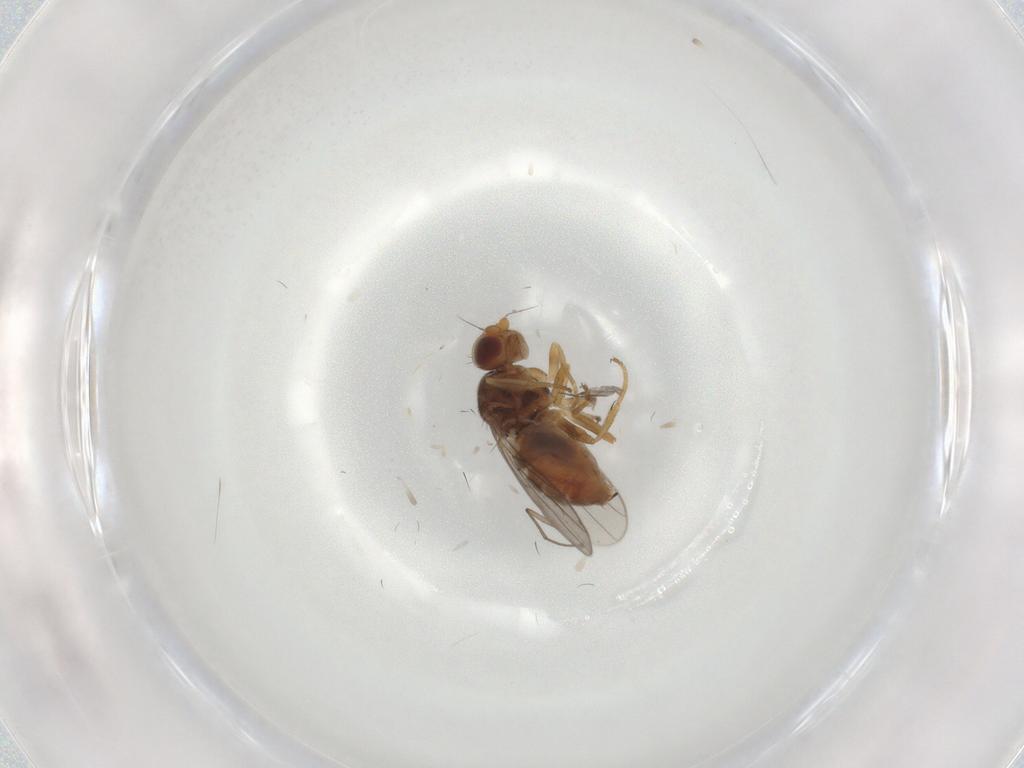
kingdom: Animalia
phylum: Arthropoda
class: Insecta
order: Diptera
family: Chloropidae
